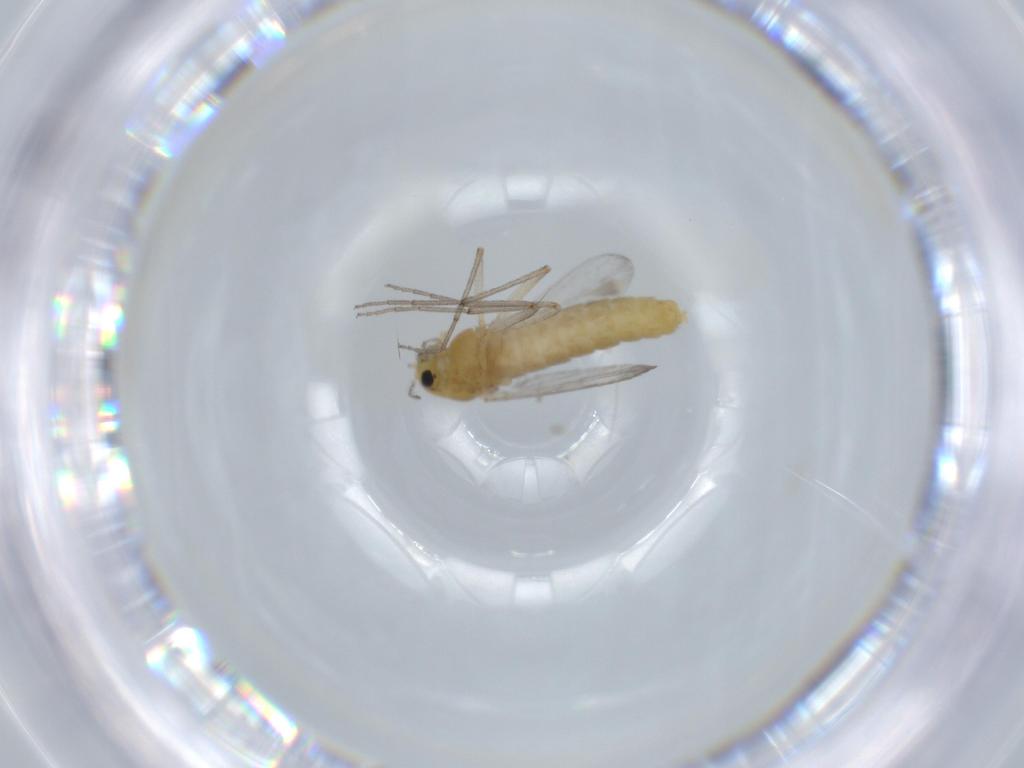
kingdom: Animalia
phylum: Arthropoda
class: Insecta
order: Diptera
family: Chironomidae
